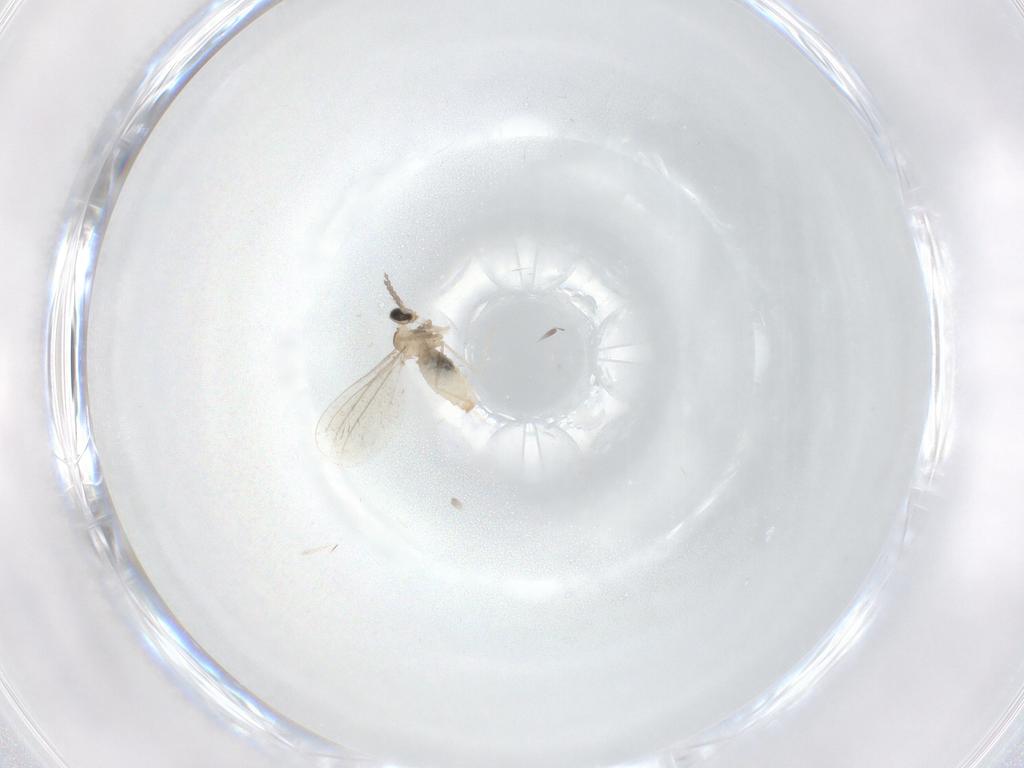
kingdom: Animalia
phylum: Arthropoda
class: Insecta
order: Diptera
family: Cecidomyiidae
